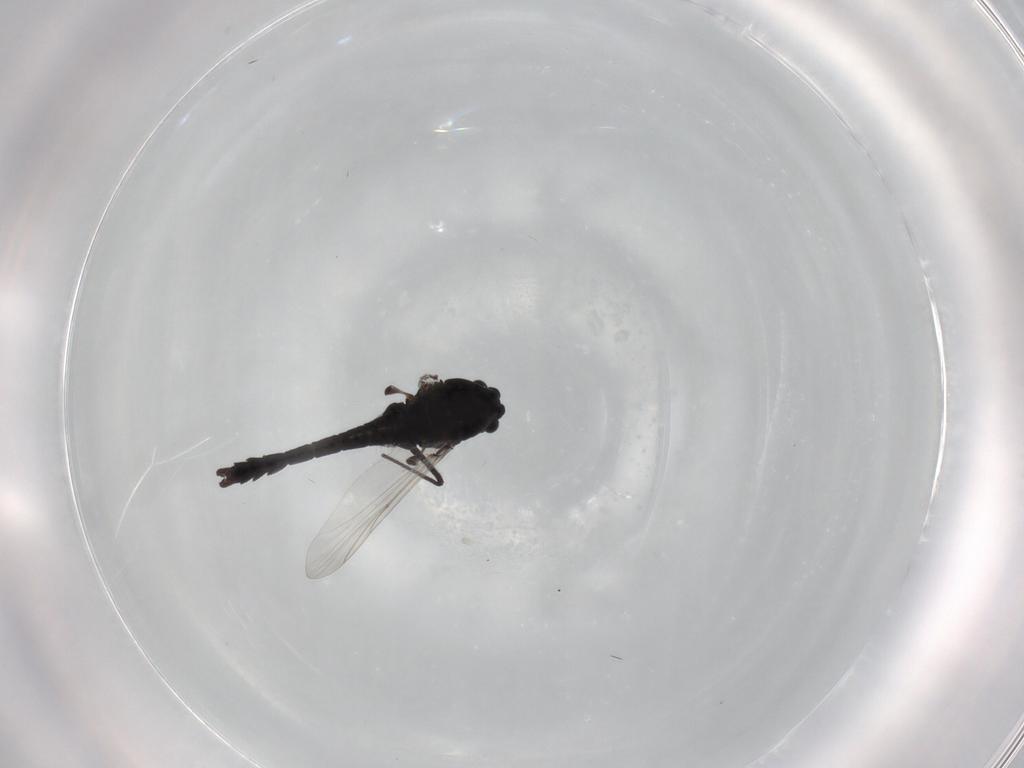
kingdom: Animalia
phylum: Arthropoda
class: Insecta
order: Diptera
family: Chironomidae
